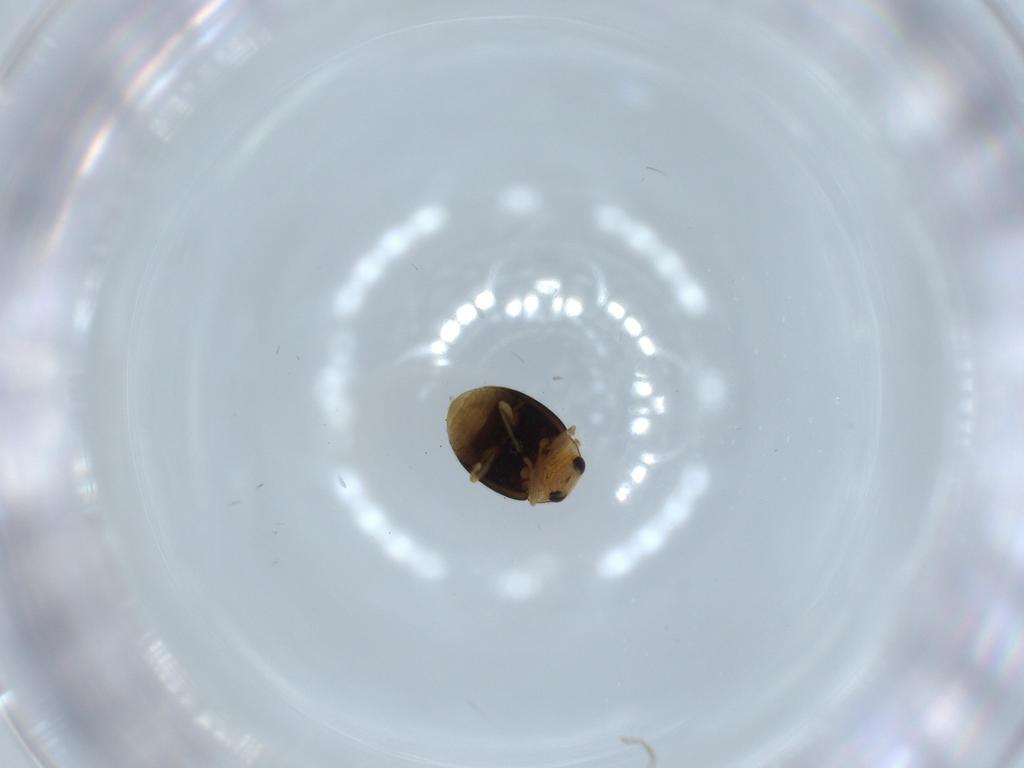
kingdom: Animalia
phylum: Arthropoda
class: Insecta
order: Coleoptera
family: Coccinellidae
